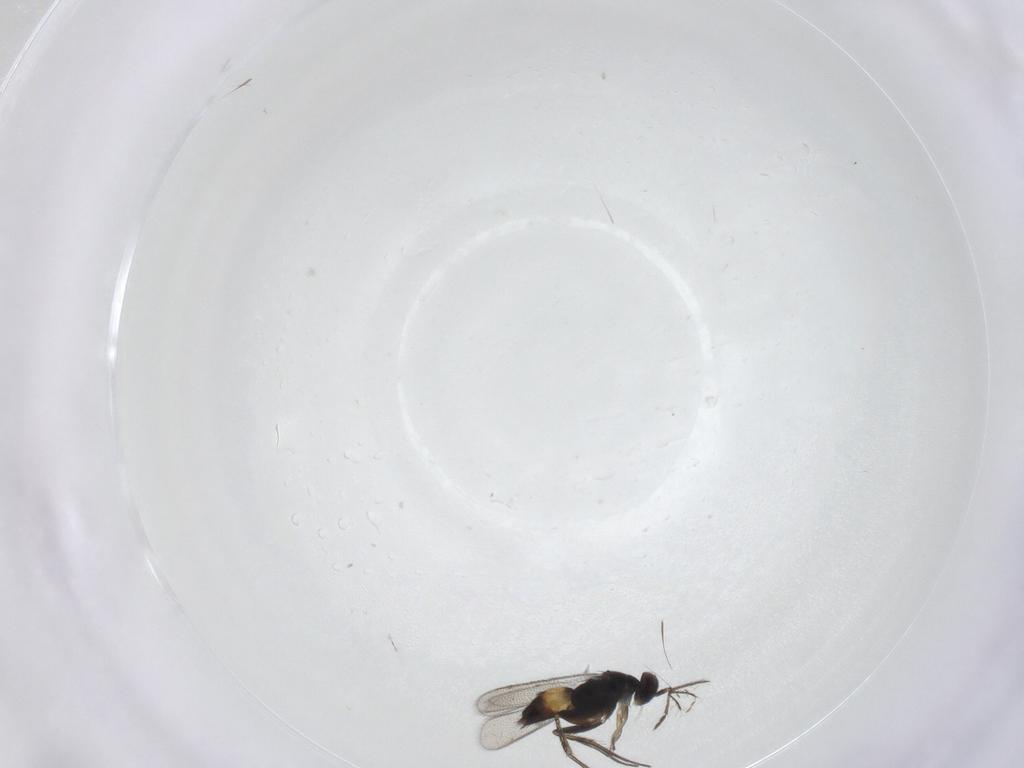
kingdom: Animalia
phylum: Arthropoda
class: Insecta
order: Hymenoptera
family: Eulophidae
